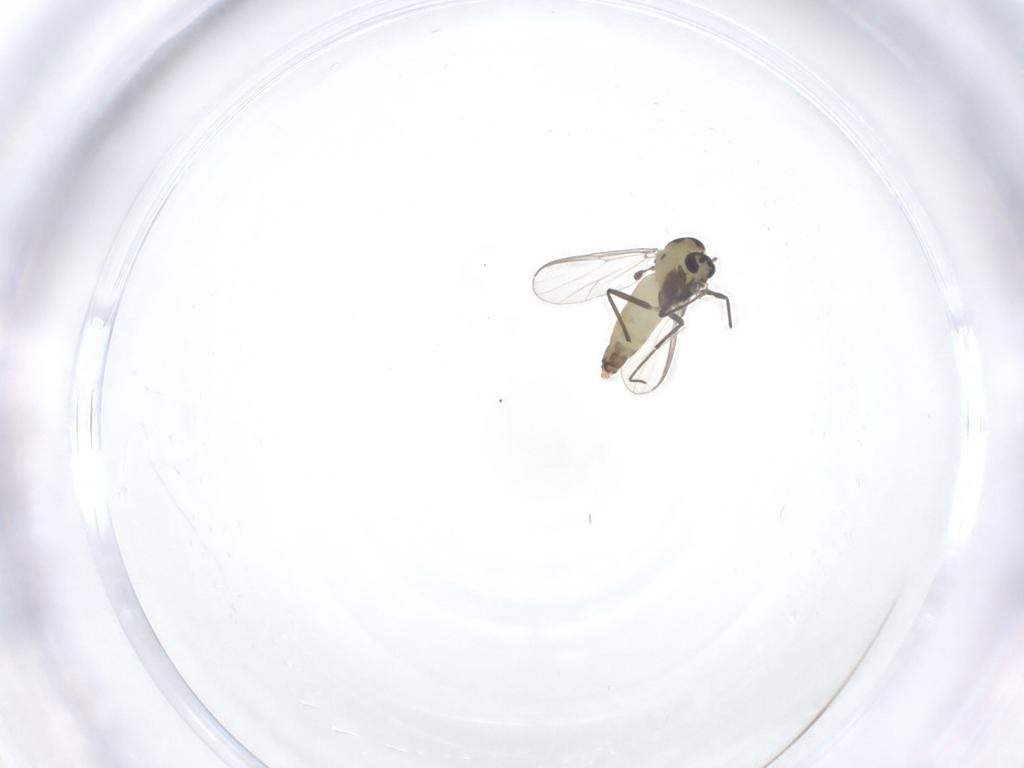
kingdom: Animalia
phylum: Arthropoda
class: Insecta
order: Diptera
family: Chironomidae
